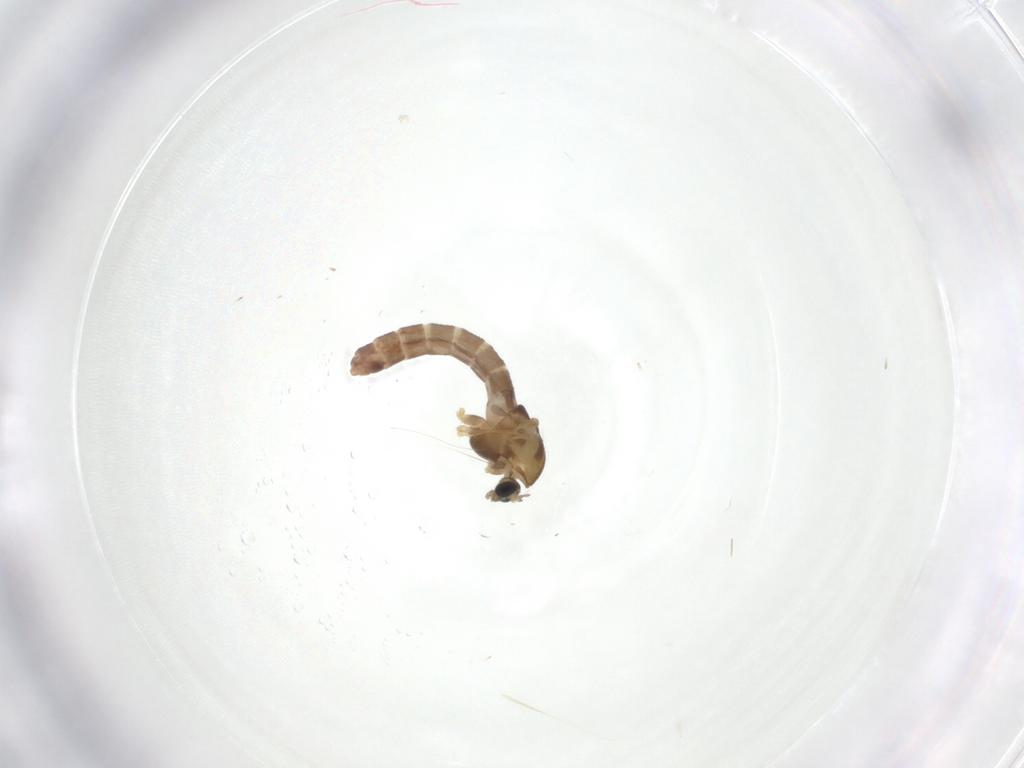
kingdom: Animalia
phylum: Arthropoda
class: Insecta
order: Diptera
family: Chironomidae
